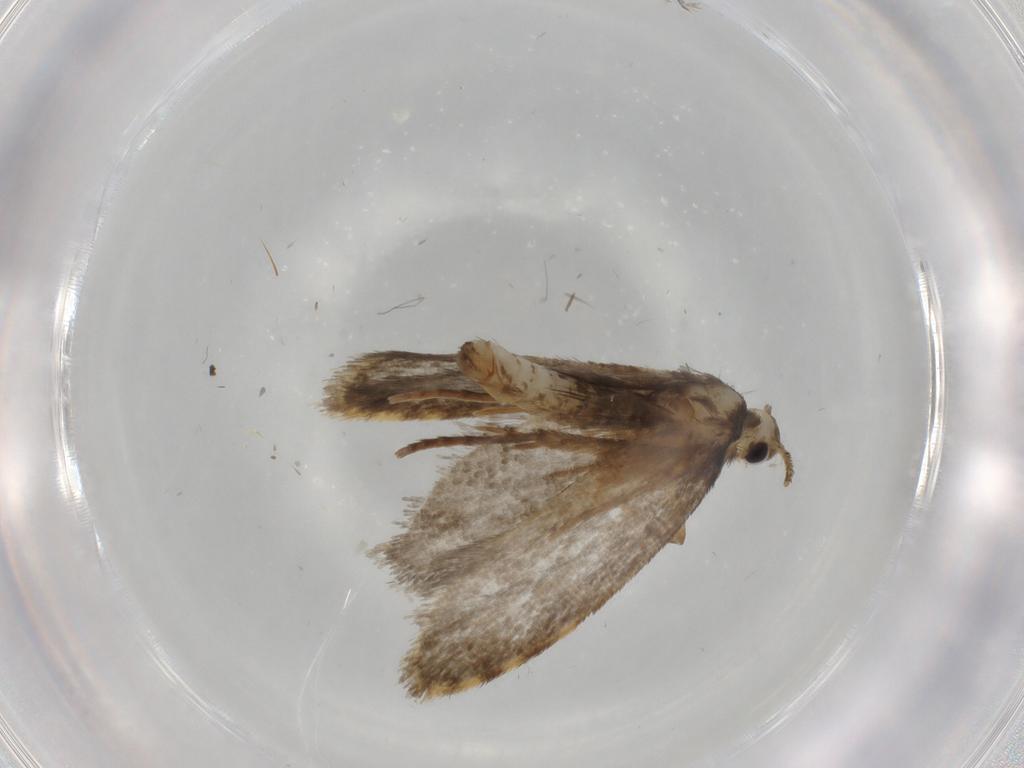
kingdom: Animalia
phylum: Arthropoda
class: Insecta
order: Lepidoptera
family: Psychidae
